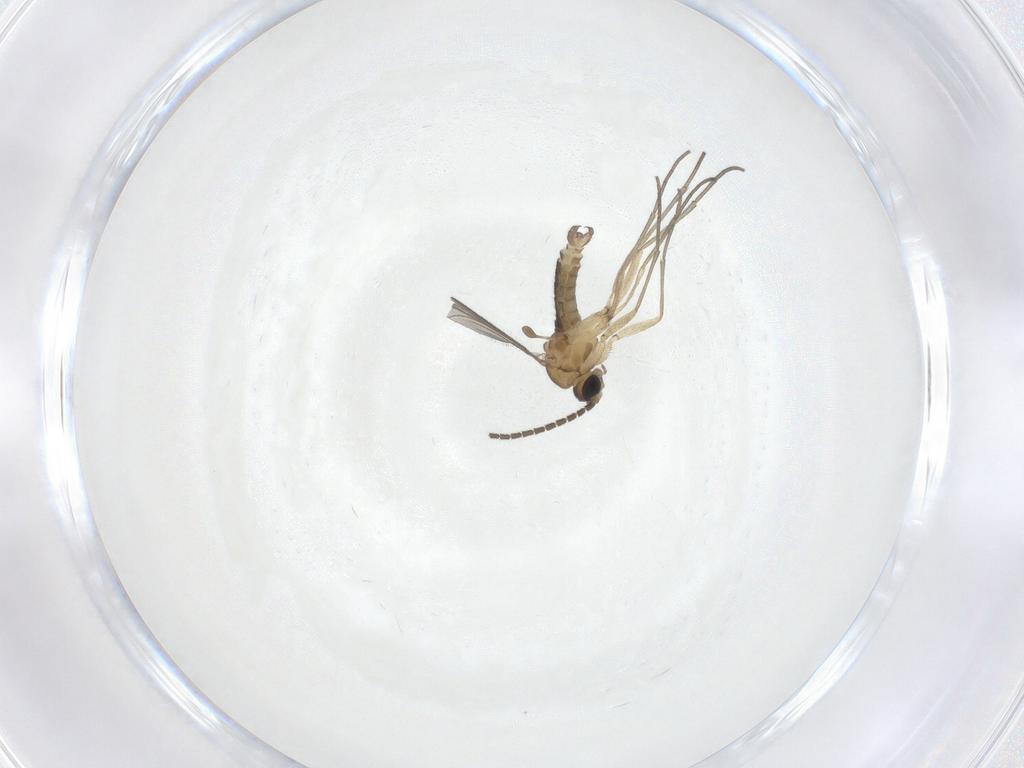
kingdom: Animalia
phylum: Arthropoda
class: Insecta
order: Diptera
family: Sciaridae
